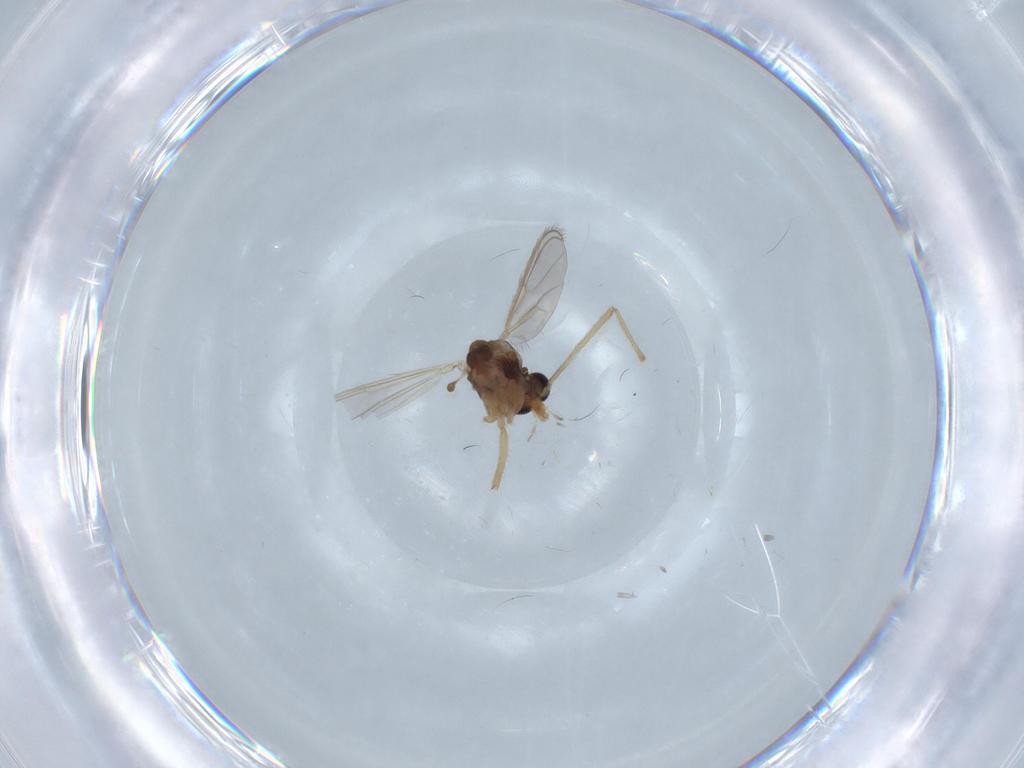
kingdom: Animalia
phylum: Arthropoda
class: Insecta
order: Diptera
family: Chironomidae
